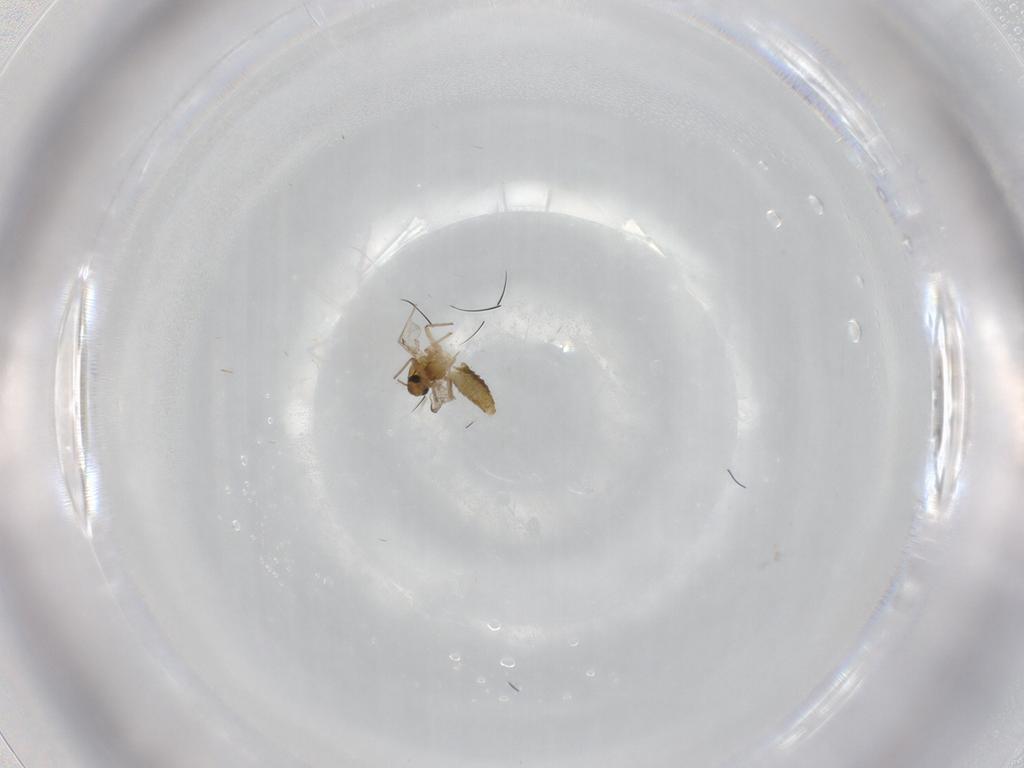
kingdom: Animalia
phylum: Arthropoda
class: Insecta
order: Diptera
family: Chironomidae
